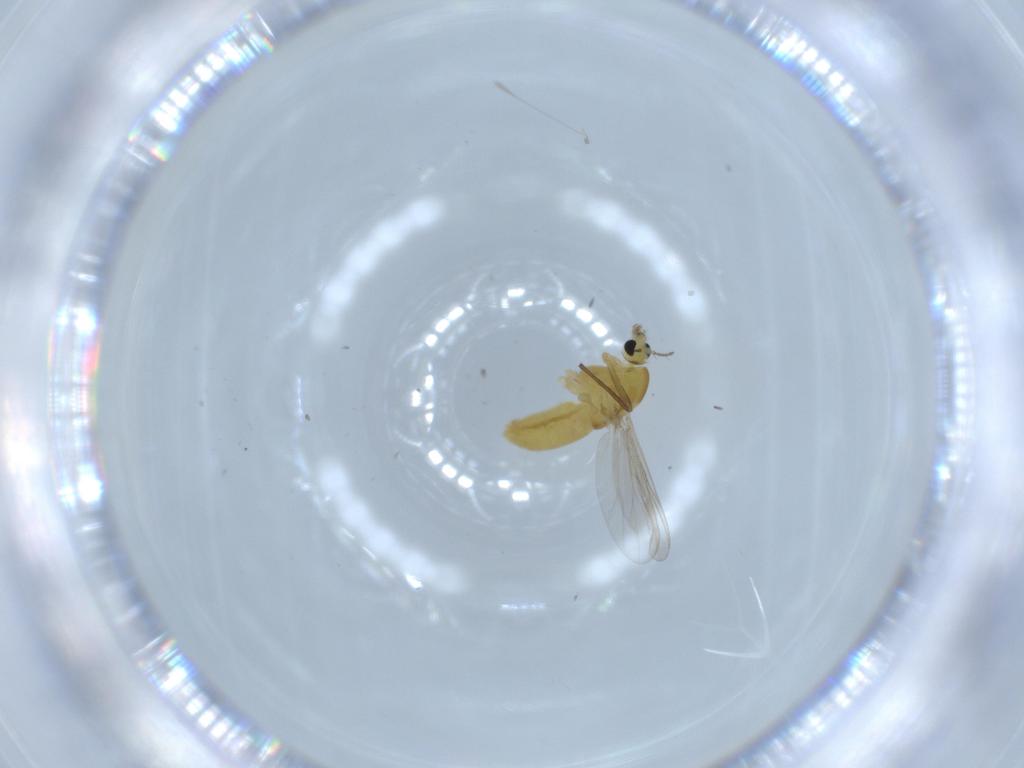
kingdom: Animalia
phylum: Arthropoda
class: Insecta
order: Diptera
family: Chironomidae
